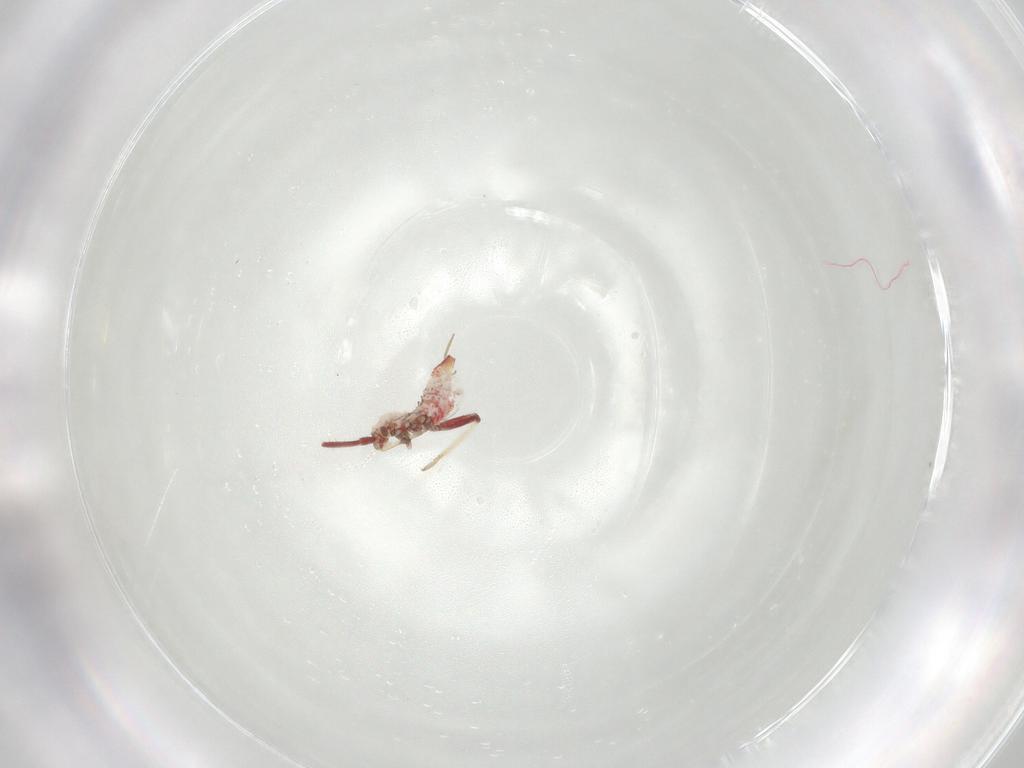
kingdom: Animalia
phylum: Arthropoda
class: Insecta
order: Hemiptera
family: Miridae
